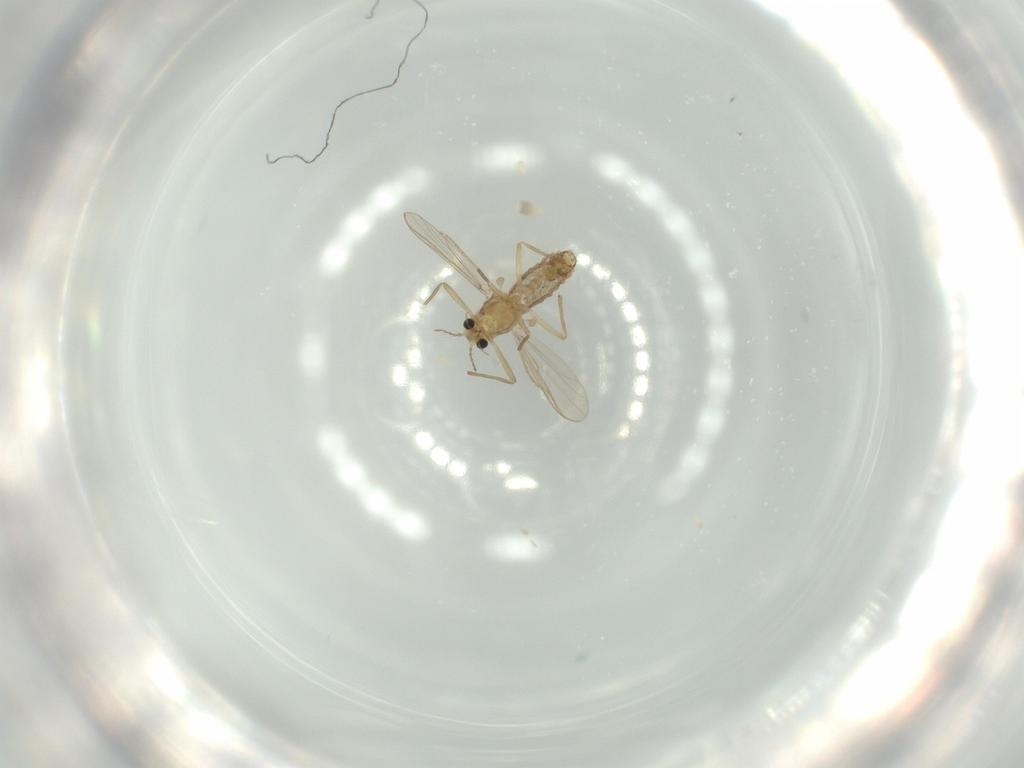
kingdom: Animalia
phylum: Arthropoda
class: Insecta
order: Diptera
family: Chironomidae
